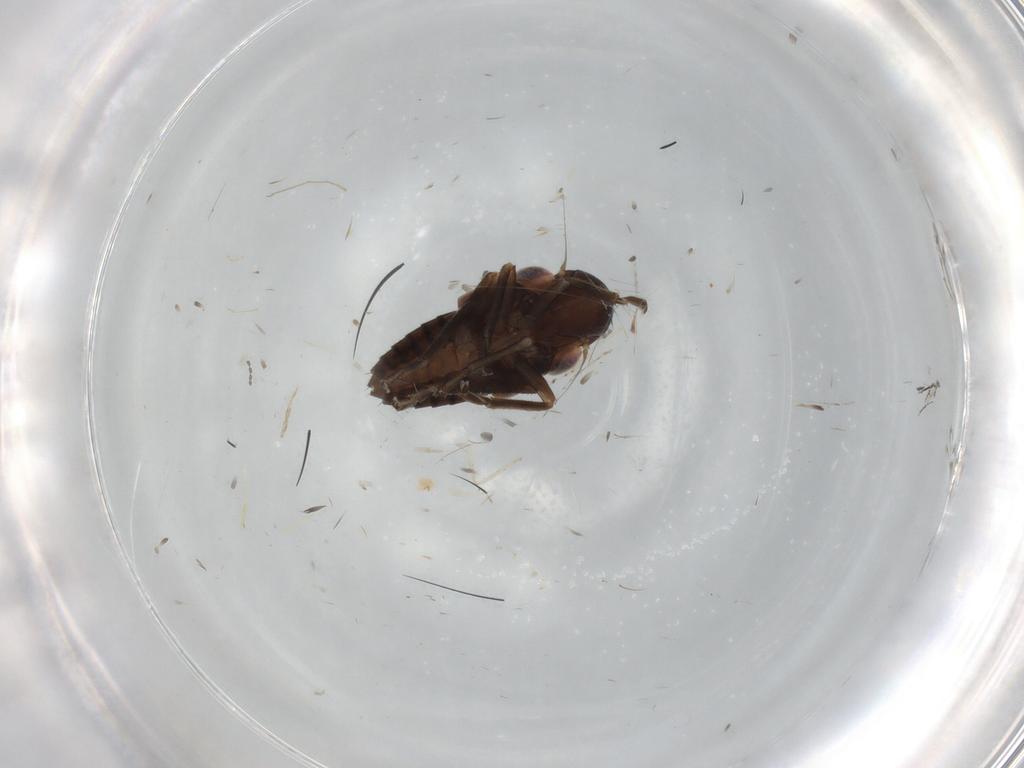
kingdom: Animalia
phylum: Arthropoda
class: Insecta
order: Hemiptera
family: Cicadellidae
